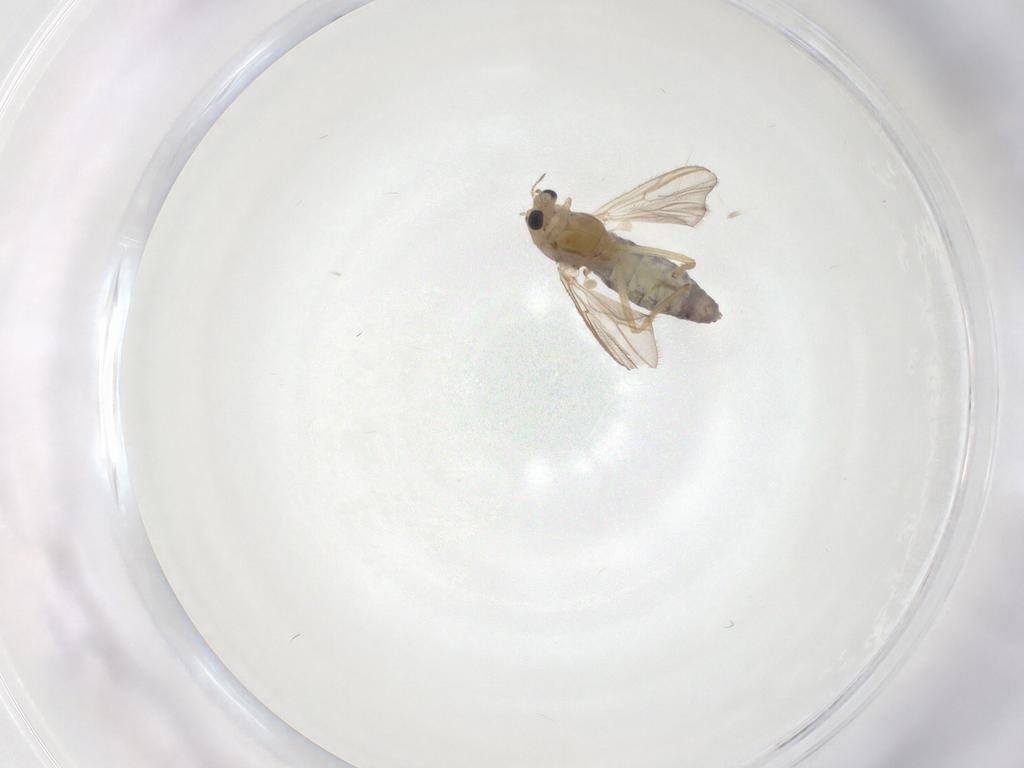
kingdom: Animalia
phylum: Arthropoda
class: Insecta
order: Diptera
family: Chironomidae
